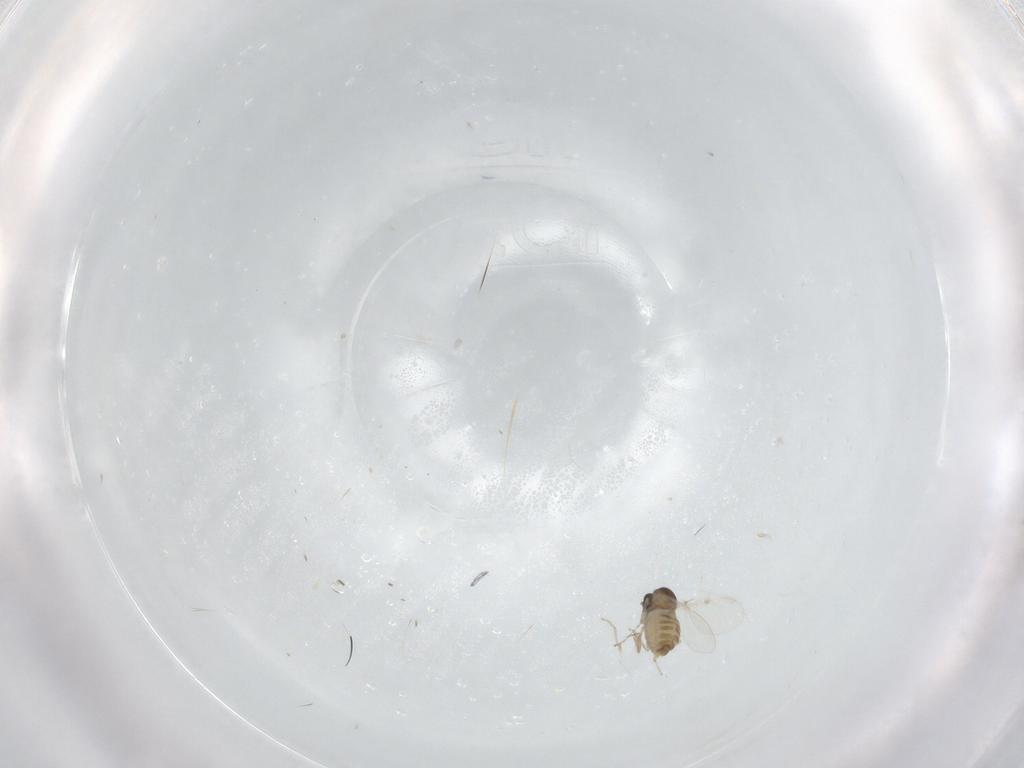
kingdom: Animalia
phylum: Arthropoda
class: Insecta
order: Diptera
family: Cecidomyiidae
